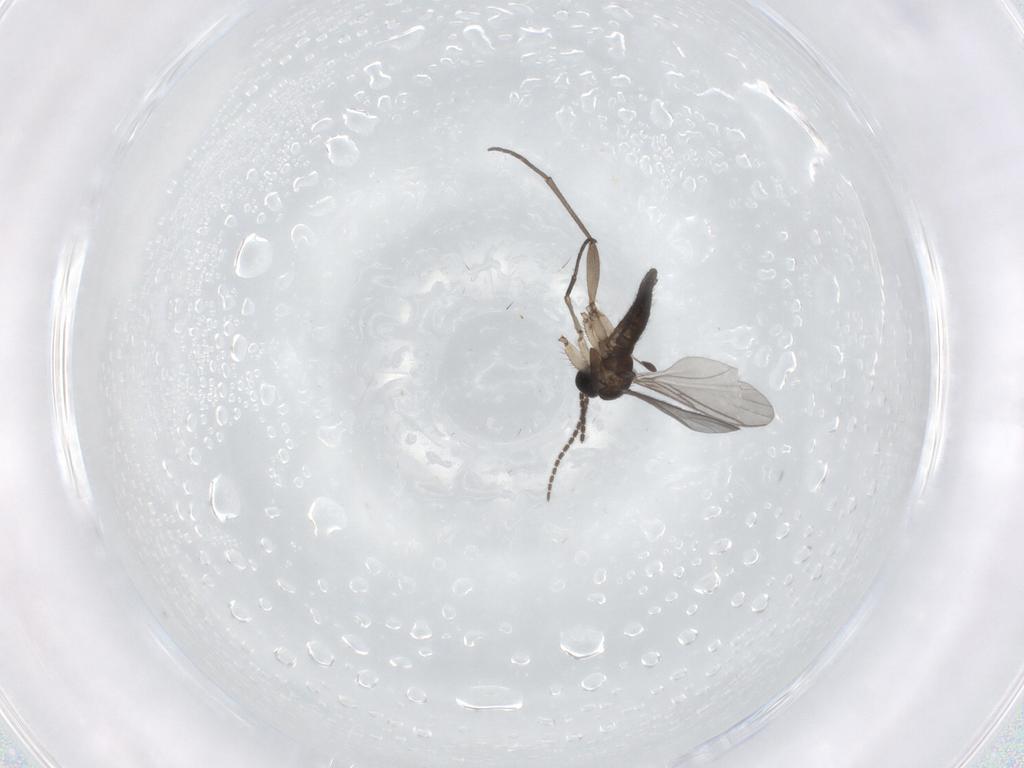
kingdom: Animalia
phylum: Arthropoda
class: Insecta
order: Diptera
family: Sciaridae
